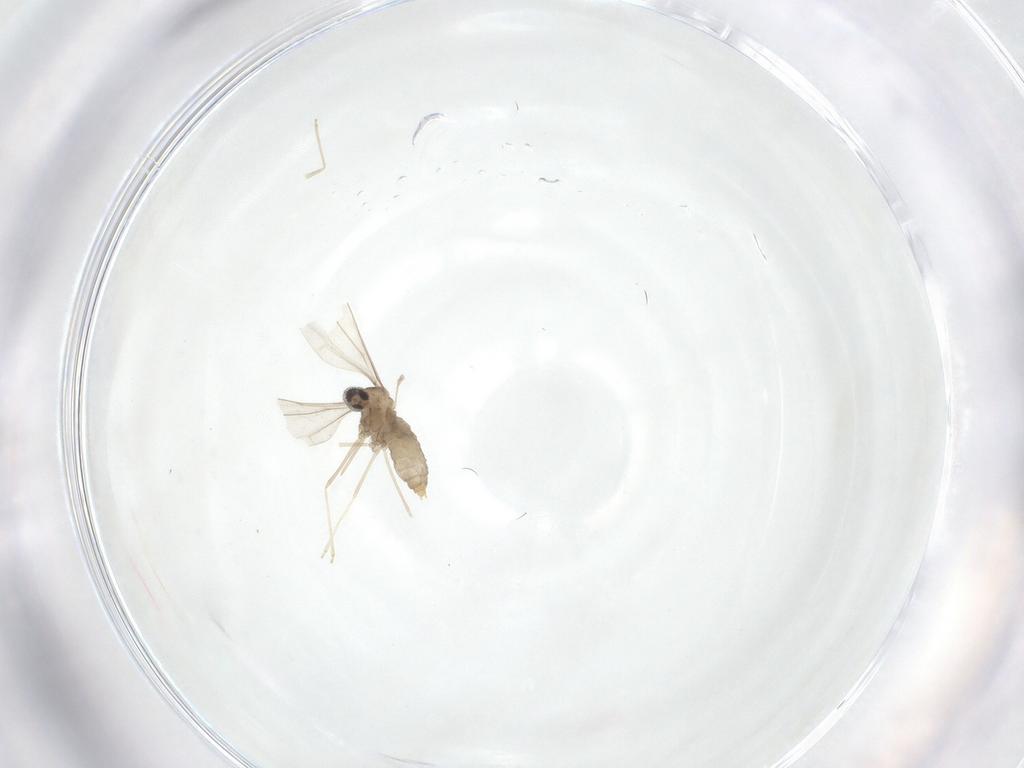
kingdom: Animalia
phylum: Arthropoda
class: Insecta
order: Diptera
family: Cecidomyiidae
